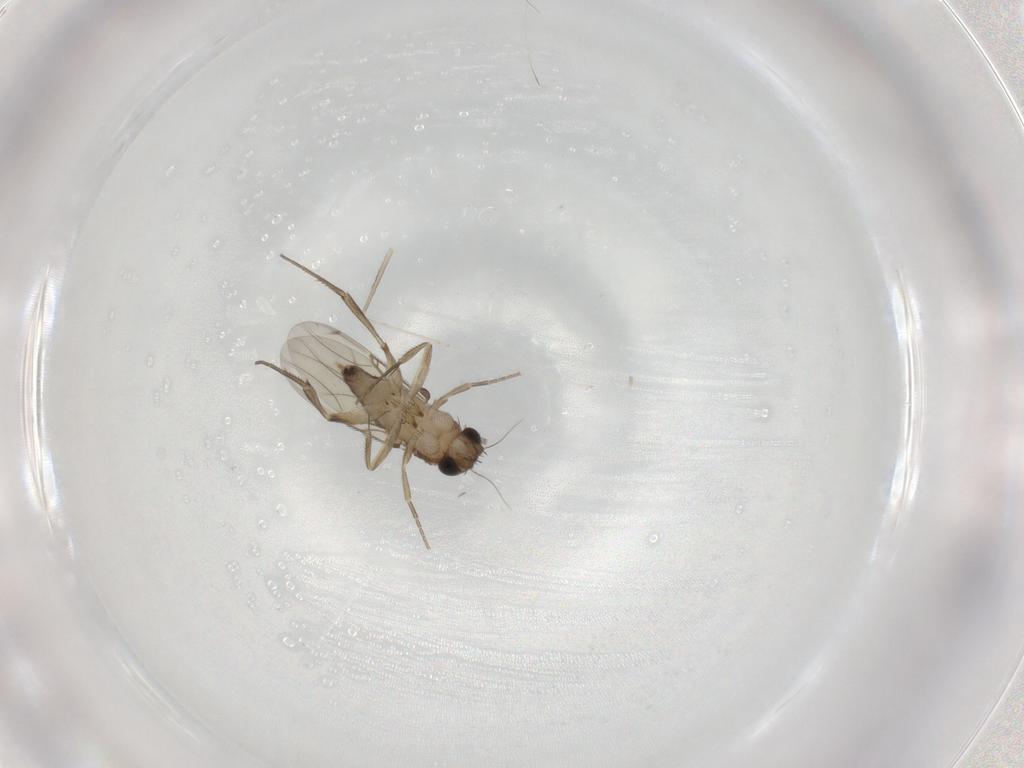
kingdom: Animalia
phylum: Arthropoda
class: Insecta
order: Diptera
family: Phoridae
